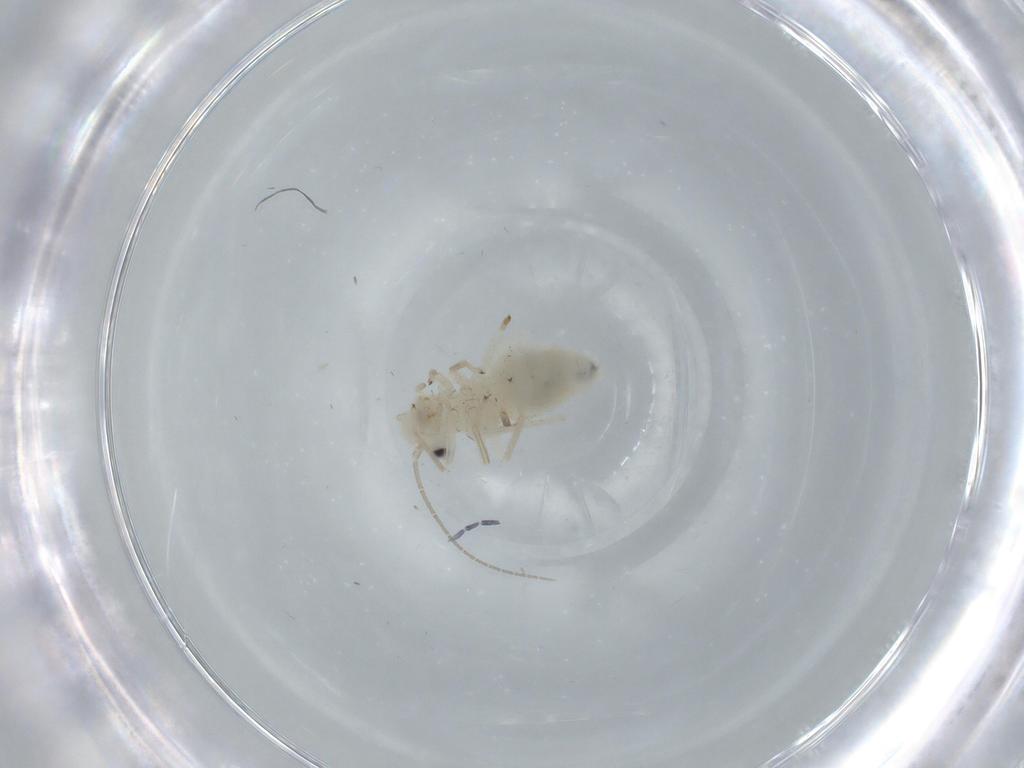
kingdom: Animalia
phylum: Arthropoda
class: Insecta
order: Psocodea
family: Caeciliusidae
